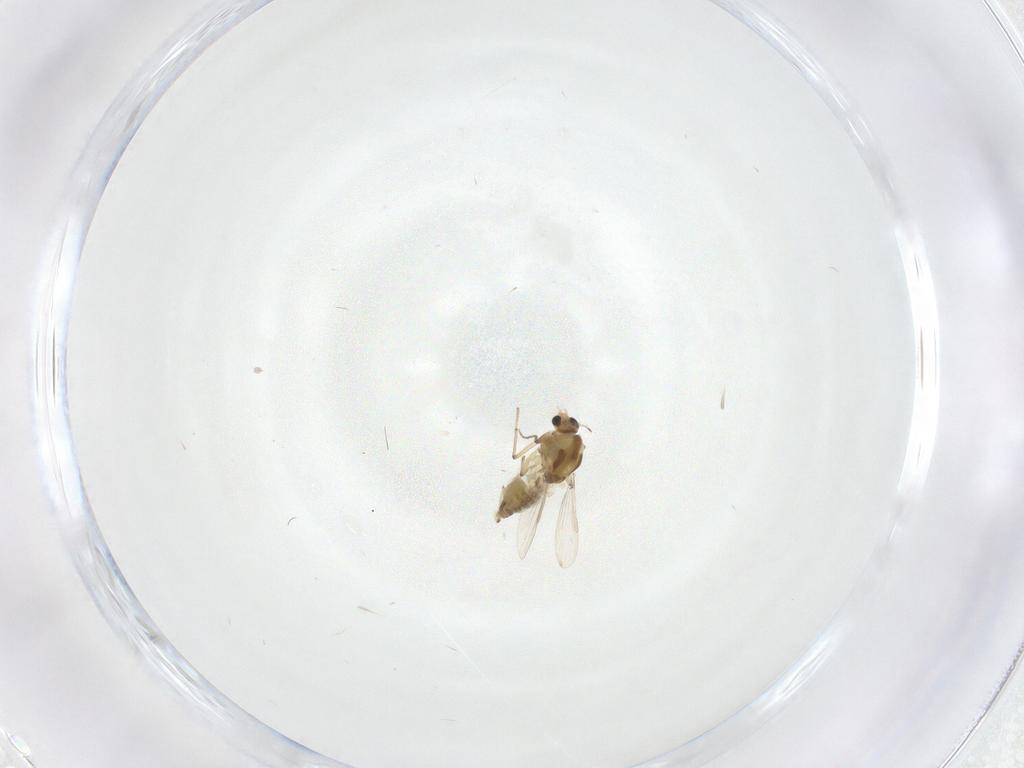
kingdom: Animalia
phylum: Arthropoda
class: Insecta
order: Diptera
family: Chironomidae
